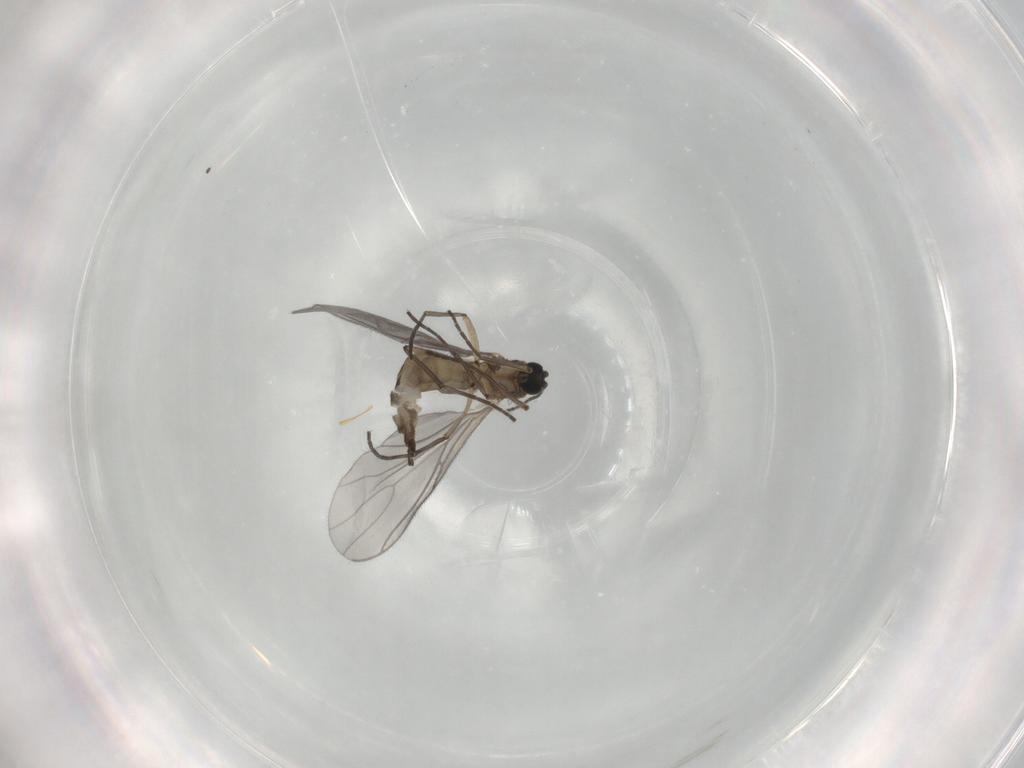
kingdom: Animalia
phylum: Arthropoda
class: Insecta
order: Diptera
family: Sciaridae
